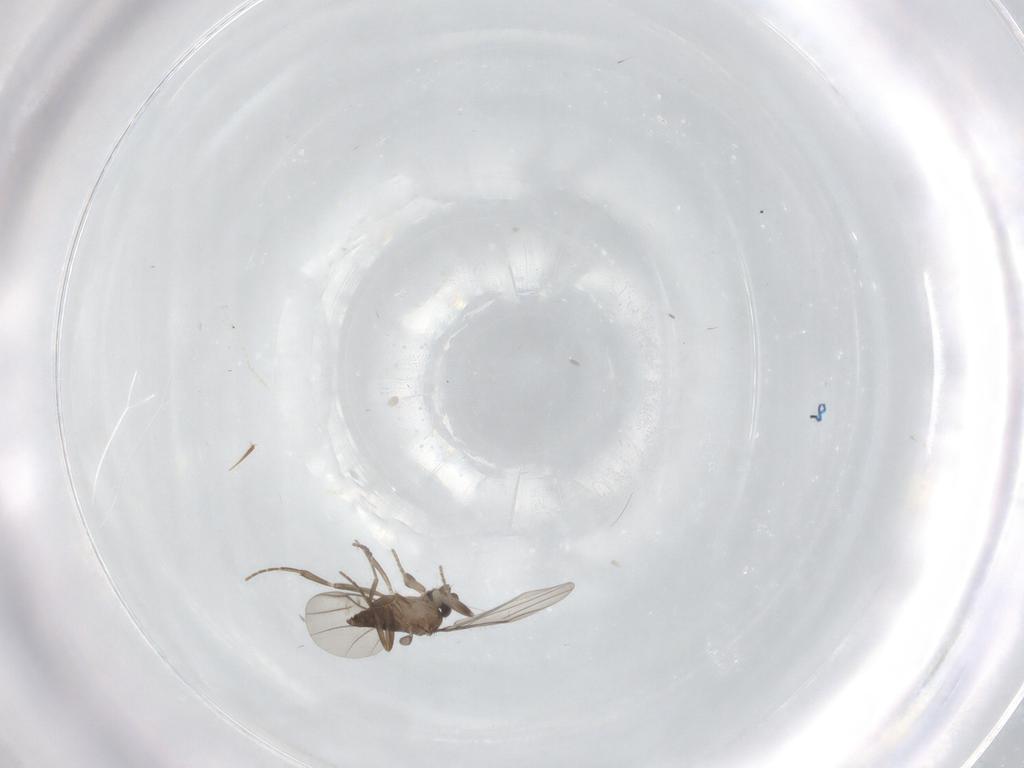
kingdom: Animalia
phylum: Arthropoda
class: Insecta
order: Diptera
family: Phoridae
